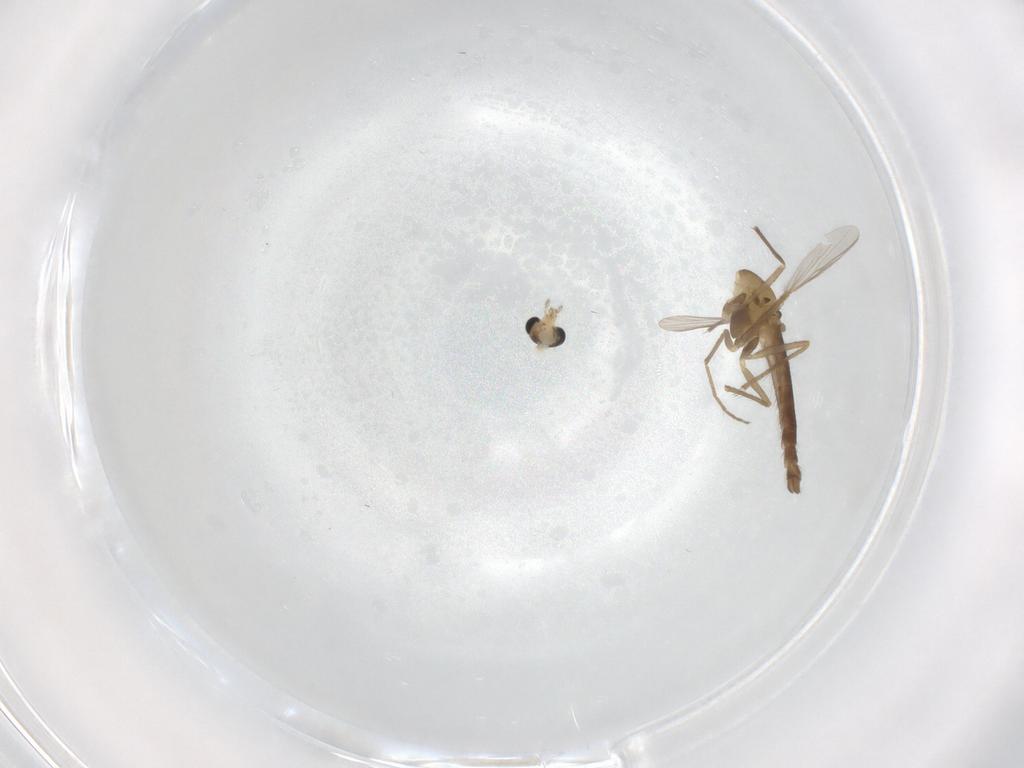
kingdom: Animalia
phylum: Arthropoda
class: Insecta
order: Diptera
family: Chironomidae
